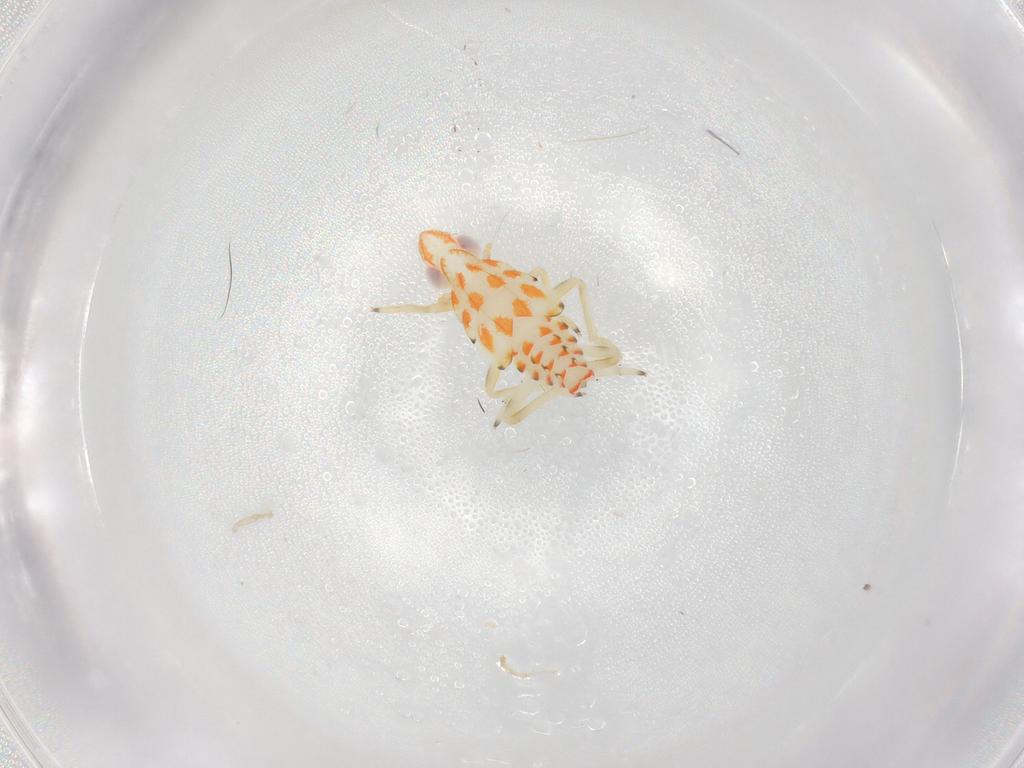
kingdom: Animalia
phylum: Arthropoda
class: Insecta
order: Hemiptera
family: Tropiduchidae
